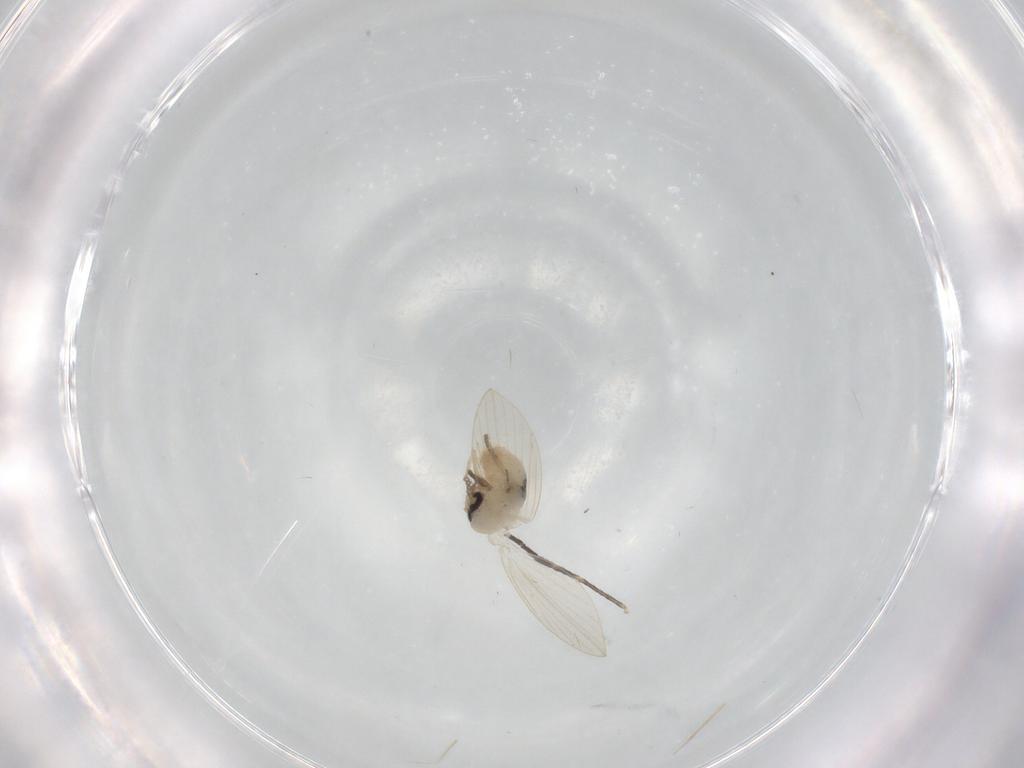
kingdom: Animalia
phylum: Arthropoda
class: Insecta
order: Diptera
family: Psychodidae
